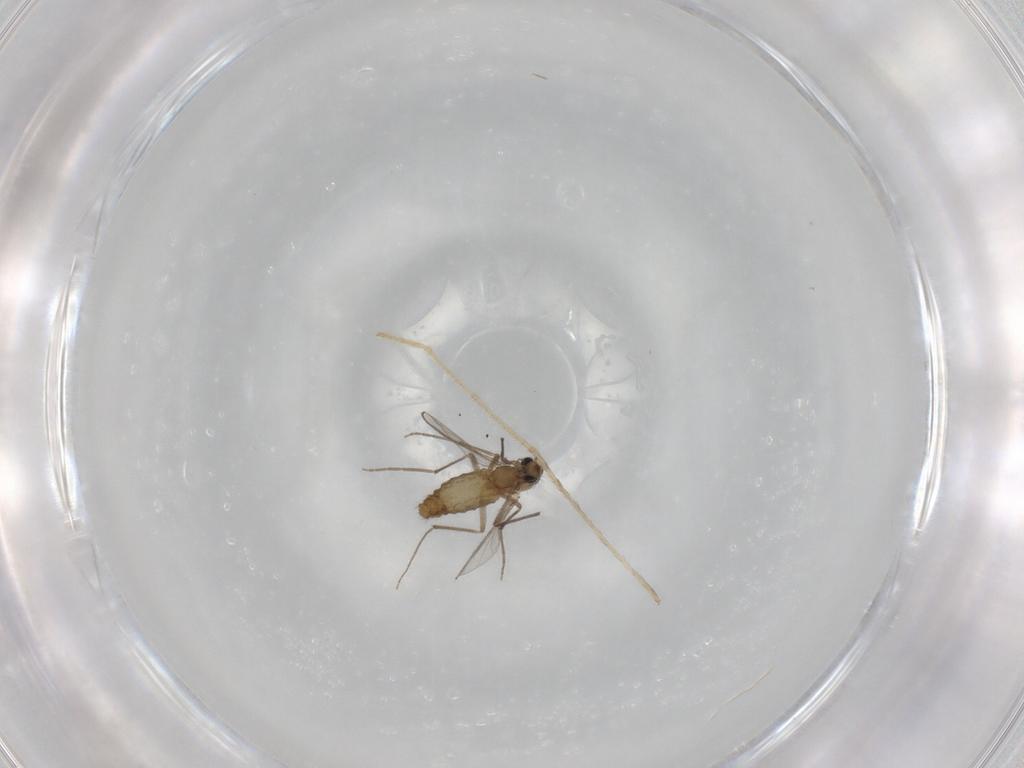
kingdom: Animalia
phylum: Arthropoda
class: Insecta
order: Diptera
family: Chironomidae
